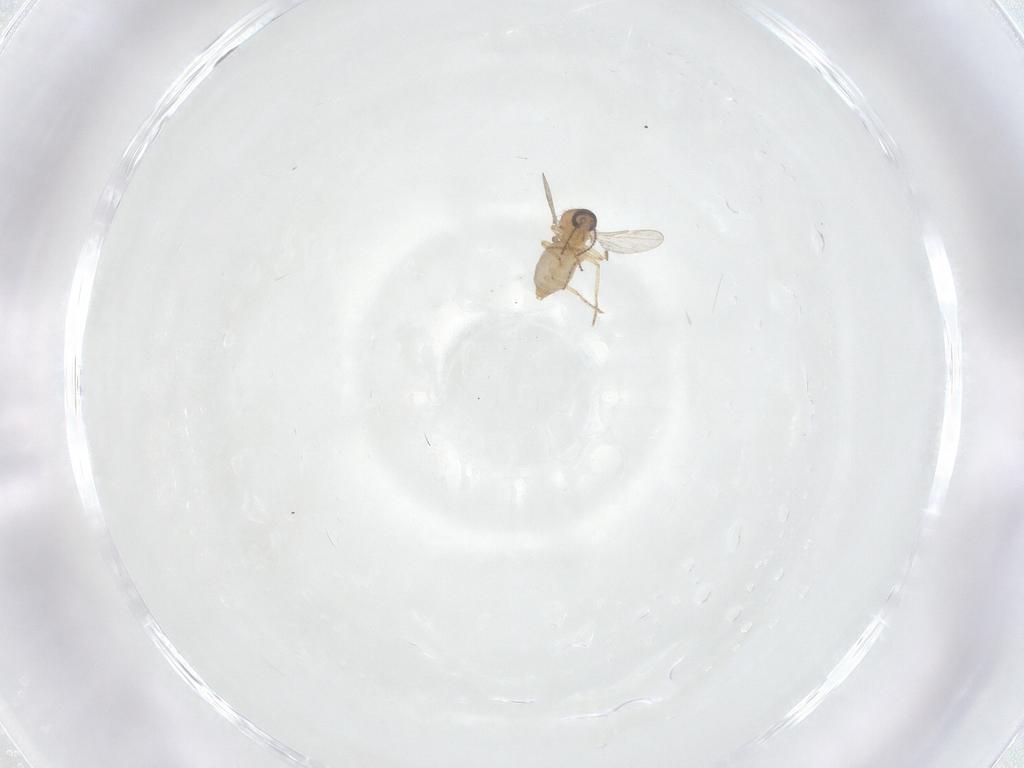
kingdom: Animalia
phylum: Arthropoda
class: Insecta
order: Diptera
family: Ceratopogonidae
